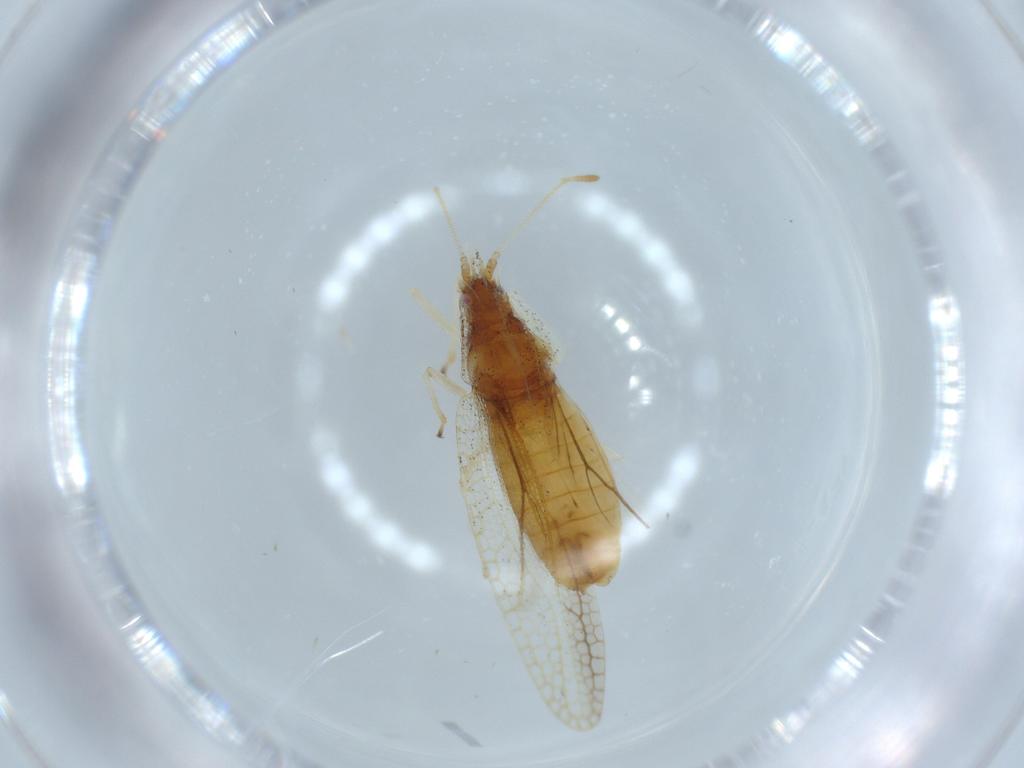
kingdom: Animalia
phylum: Arthropoda
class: Insecta
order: Hemiptera
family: Tingidae
